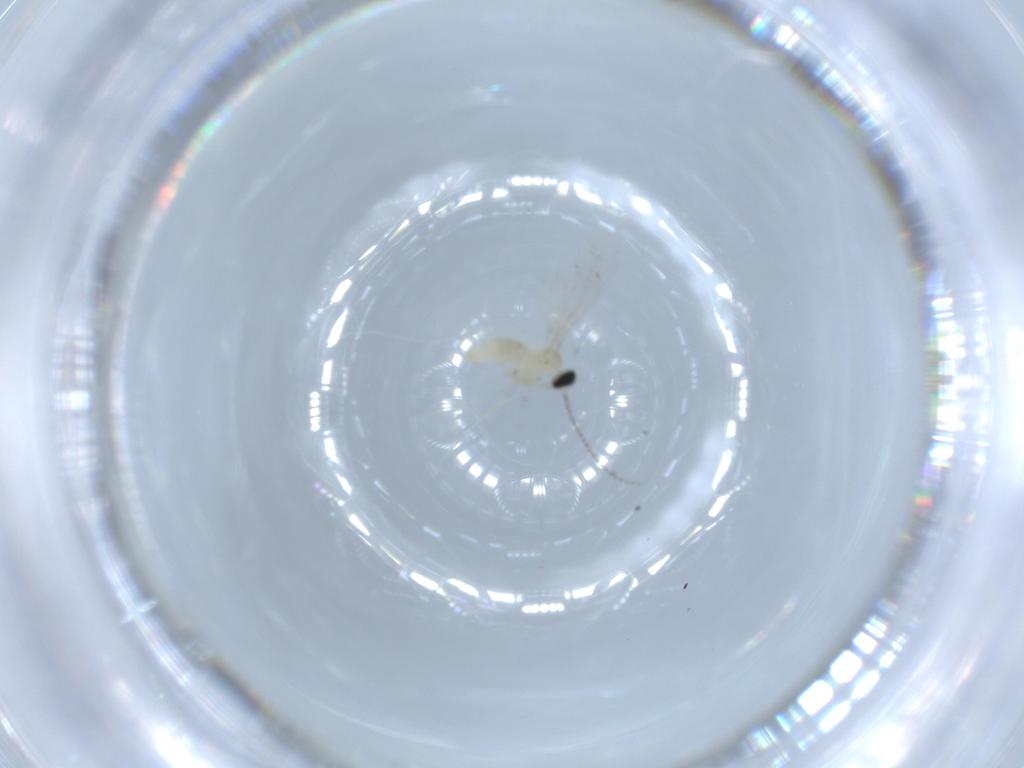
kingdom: Animalia
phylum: Arthropoda
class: Insecta
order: Diptera
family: Cecidomyiidae
